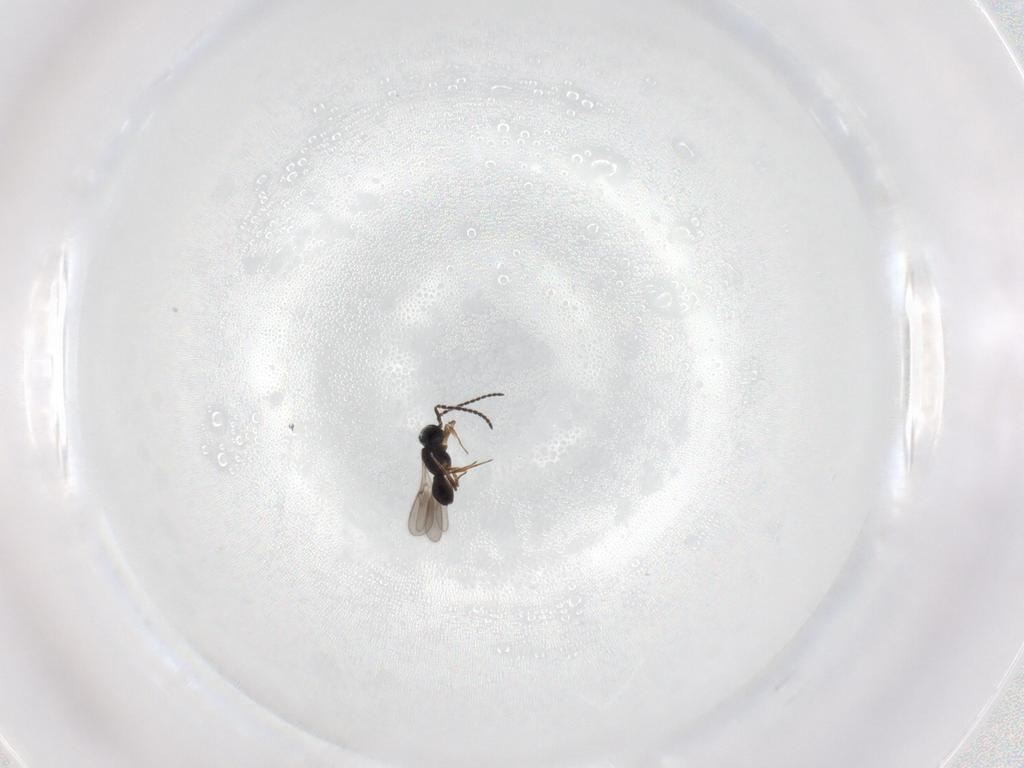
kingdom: Animalia
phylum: Arthropoda
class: Insecta
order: Hymenoptera
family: Scelionidae
